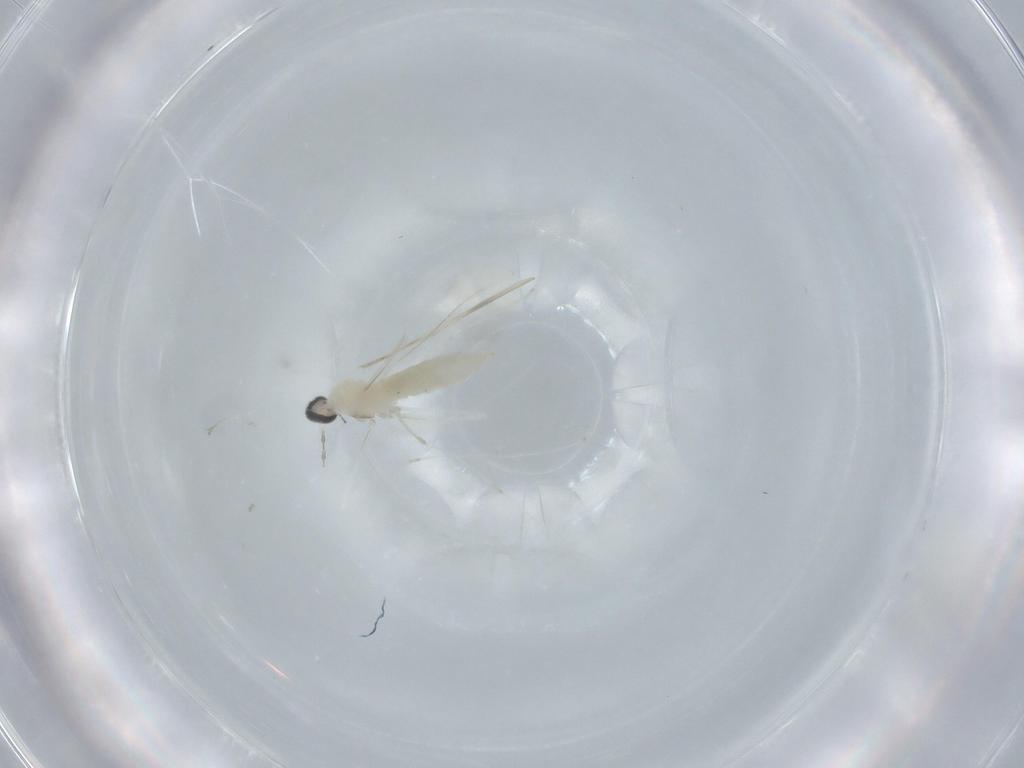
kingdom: Animalia
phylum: Arthropoda
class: Insecta
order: Diptera
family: Cecidomyiidae
